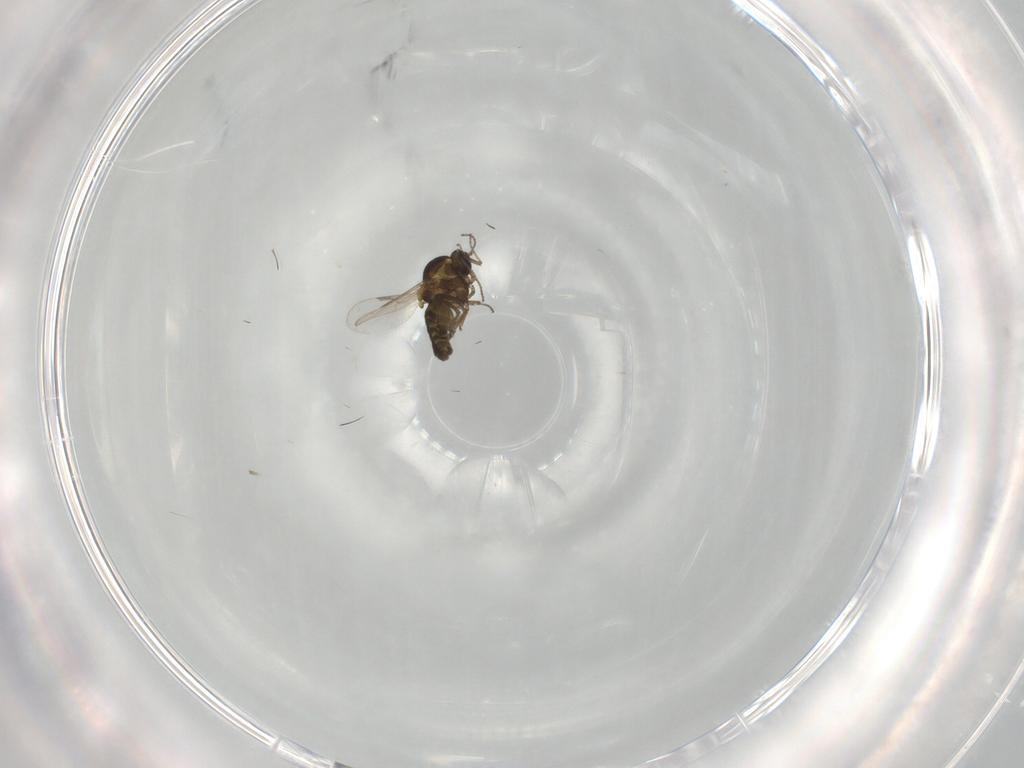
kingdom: Animalia
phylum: Arthropoda
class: Insecta
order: Diptera
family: Ceratopogonidae
